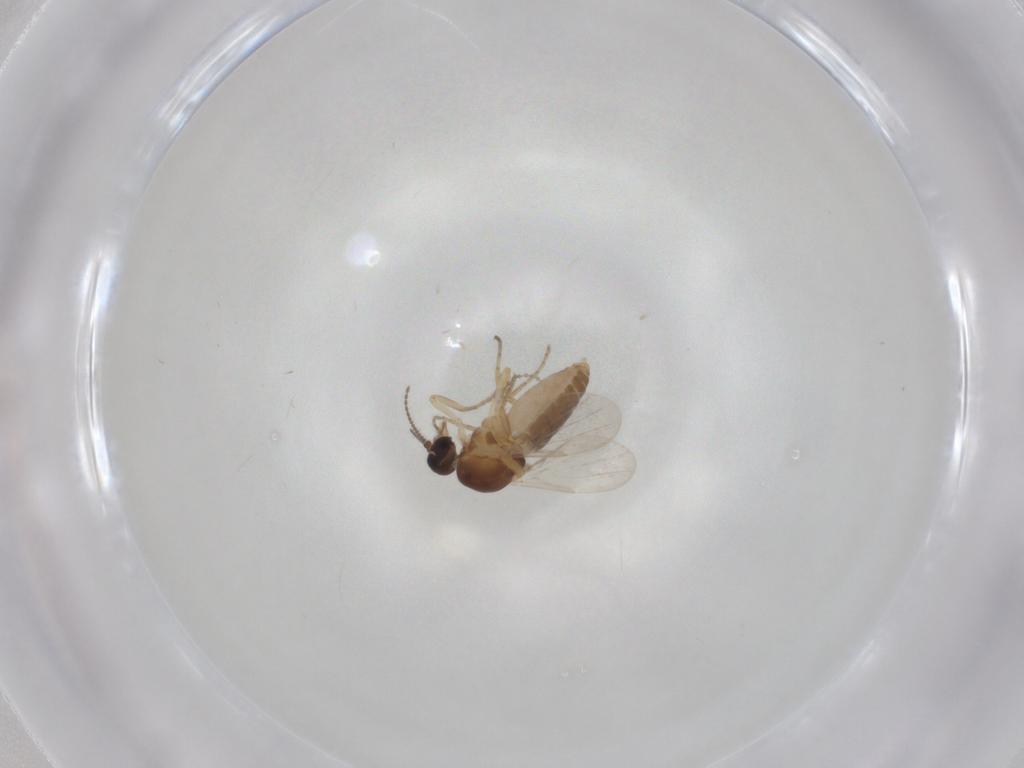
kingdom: Animalia
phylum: Arthropoda
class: Insecta
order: Diptera
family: Ceratopogonidae
